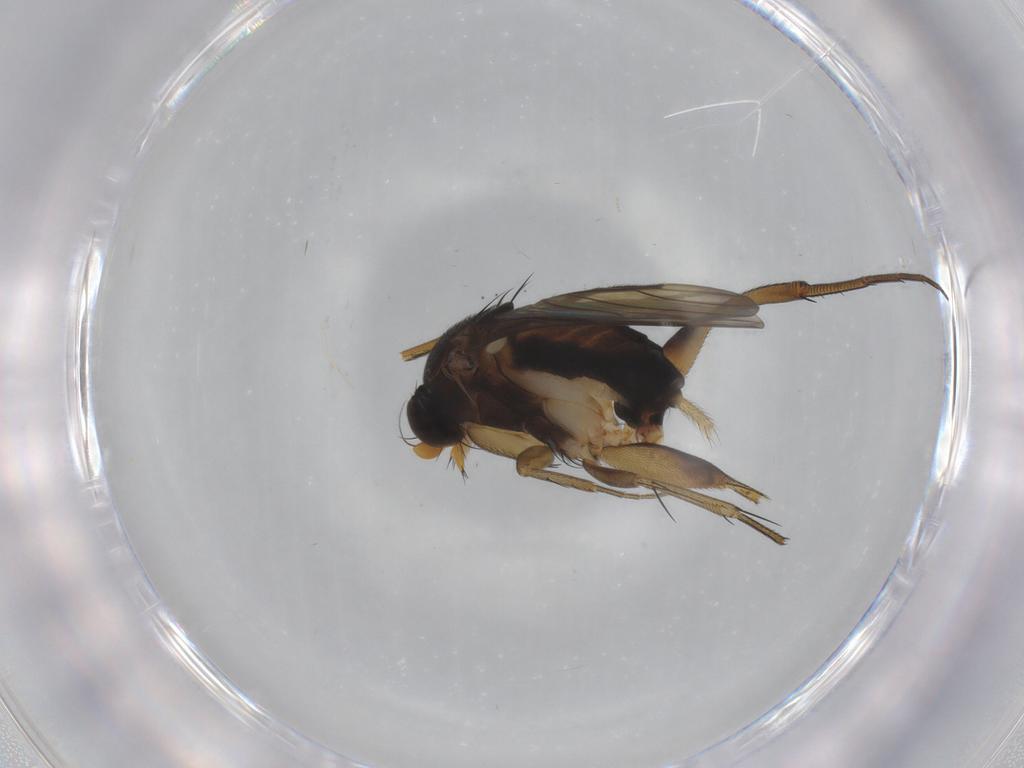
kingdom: Animalia
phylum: Arthropoda
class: Insecta
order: Diptera
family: Phoridae
